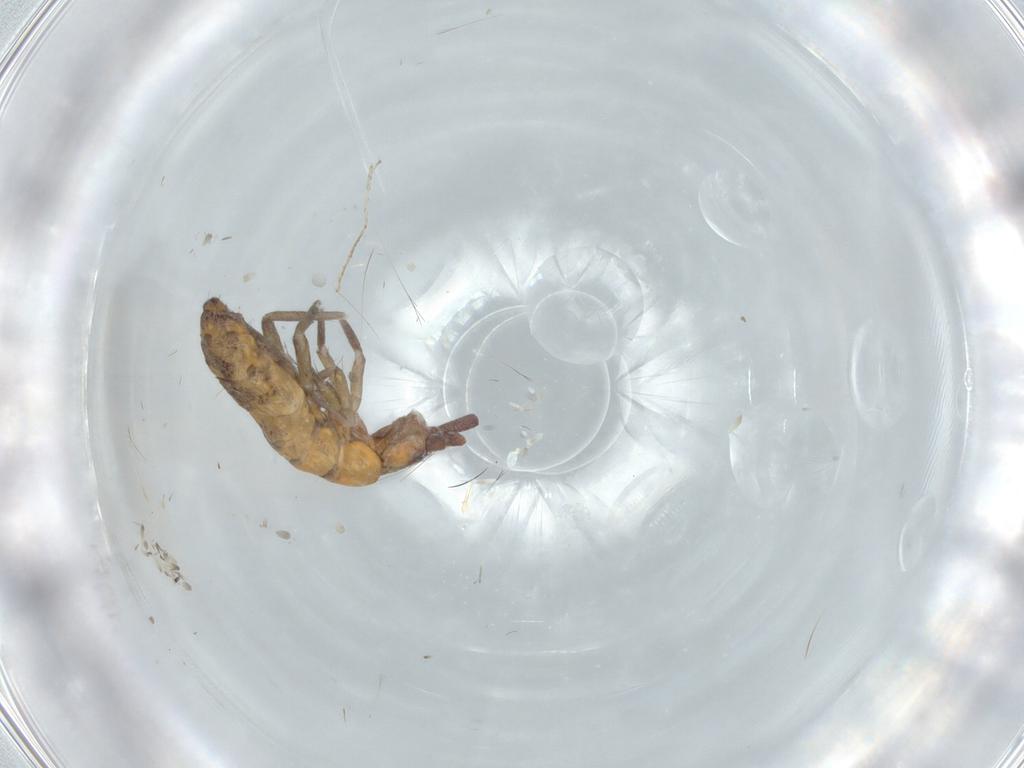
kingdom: Animalia
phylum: Arthropoda
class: Collembola
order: Entomobryomorpha
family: Tomoceridae
